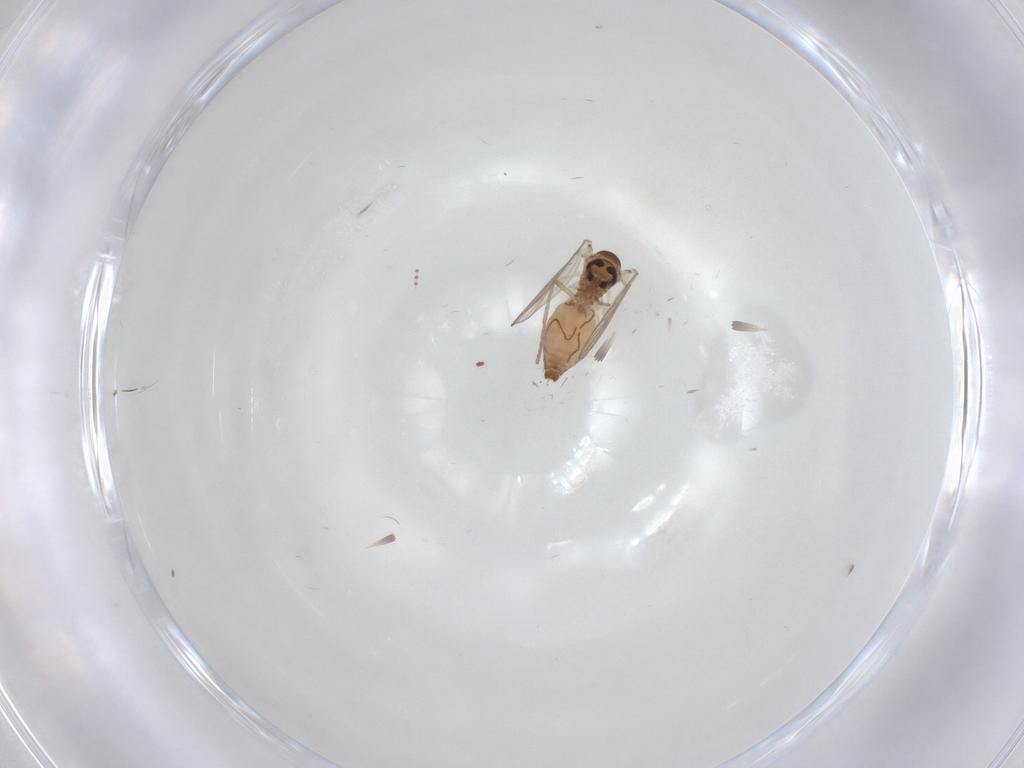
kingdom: Animalia
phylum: Arthropoda
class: Insecta
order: Diptera
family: Psychodidae
